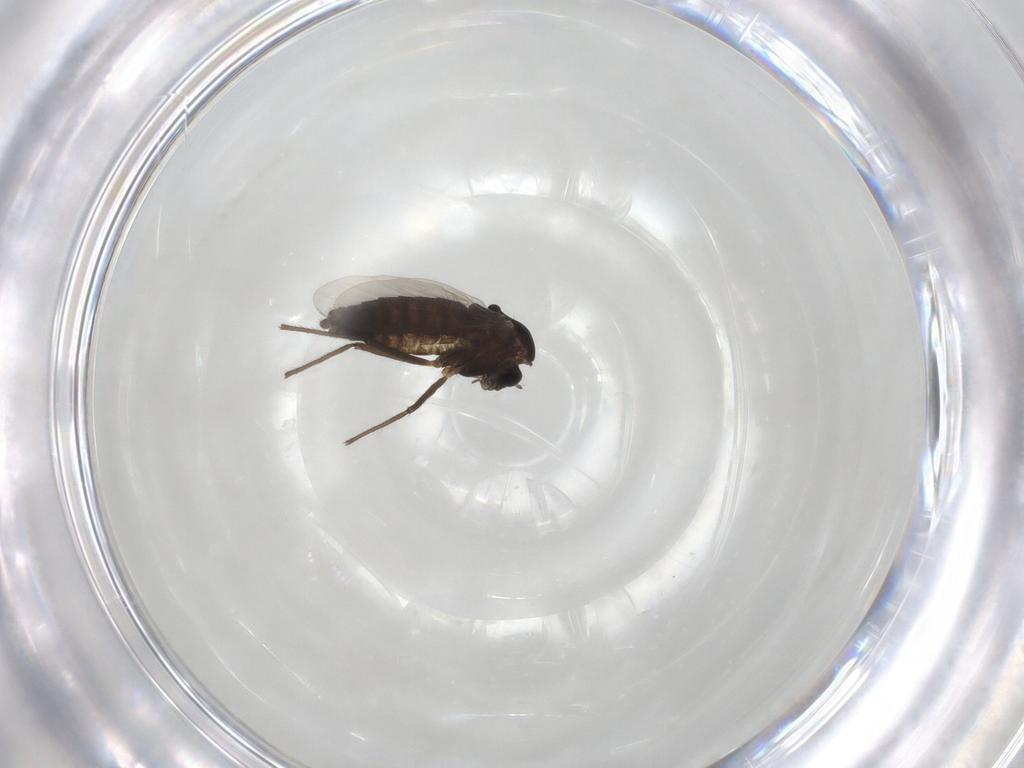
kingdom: Animalia
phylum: Arthropoda
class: Insecta
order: Diptera
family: Chironomidae
